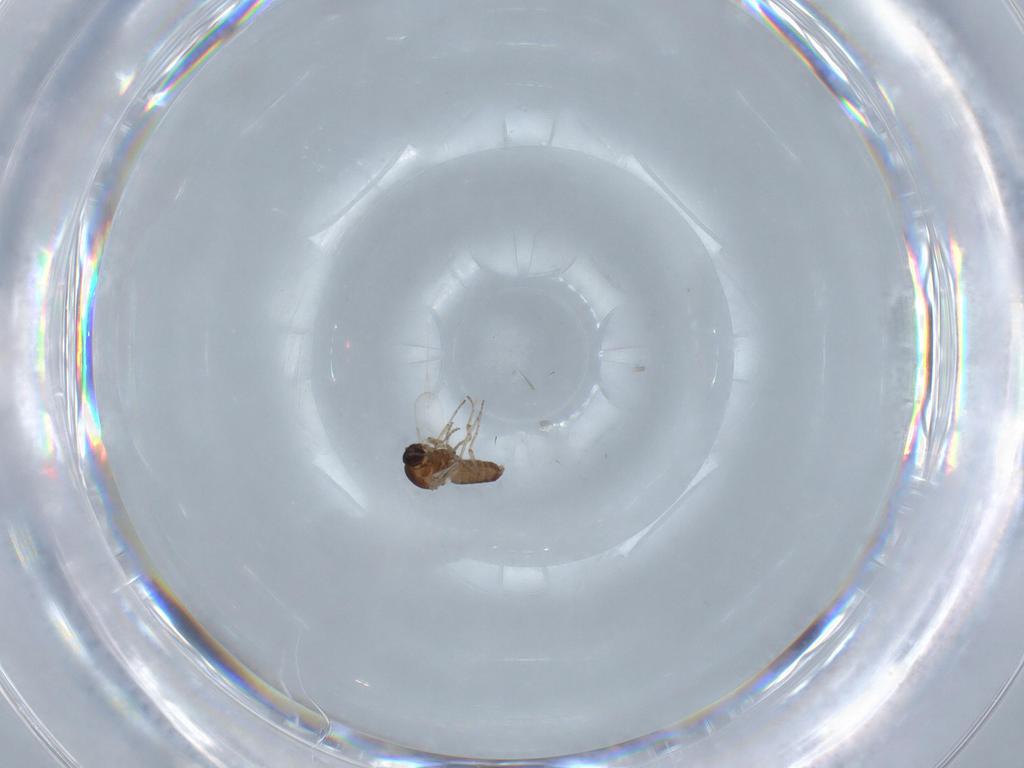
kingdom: Animalia
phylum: Arthropoda
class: Insecta
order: Diptera
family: Ceratopogonidae
